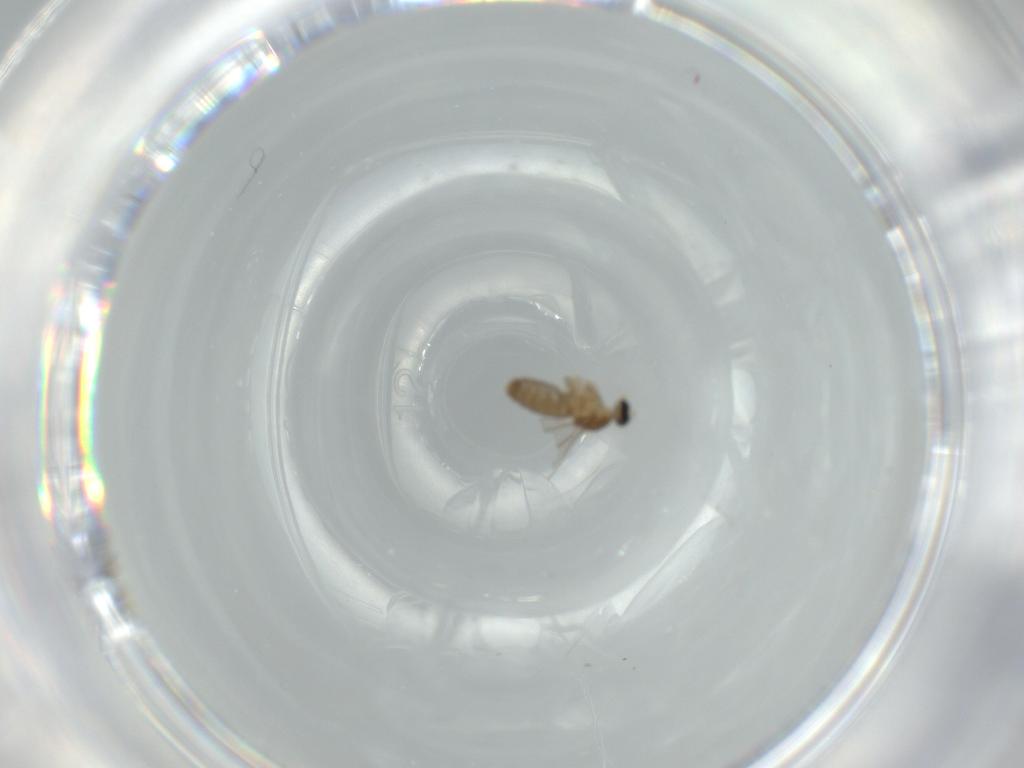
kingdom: Animalia
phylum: Arthropoda
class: Insecta
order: Diptera
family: Cecidomyiidae
